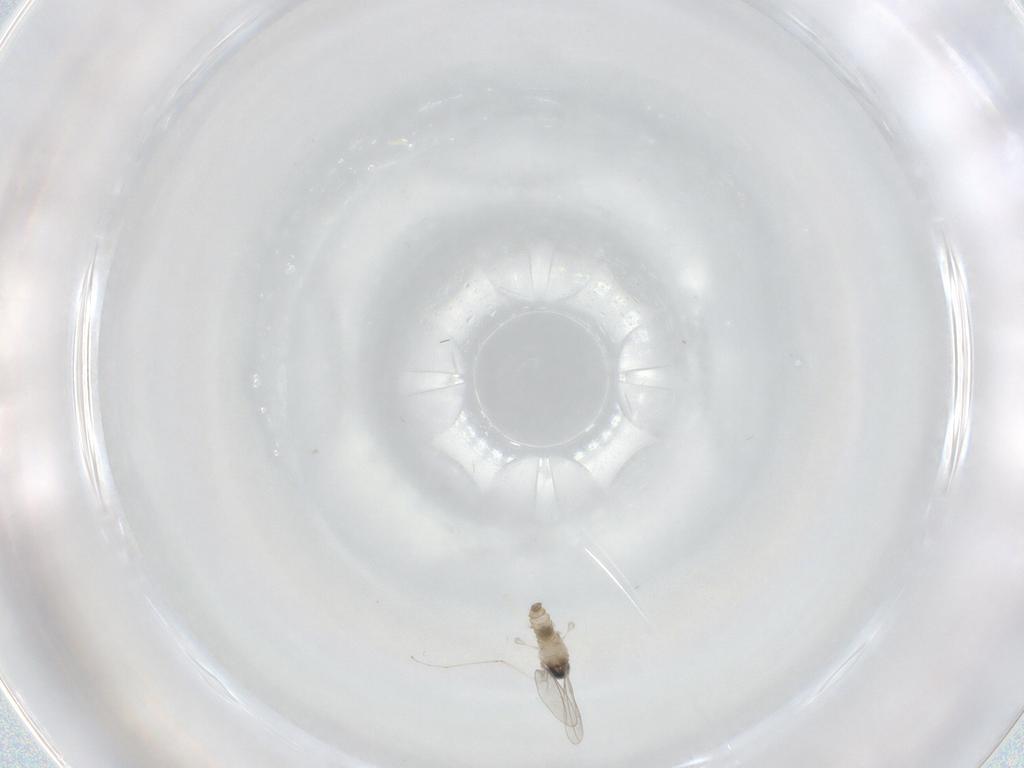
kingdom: Animalia
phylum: Arthropoda
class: Insecta
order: Diptera
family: Cecidomyiidae
